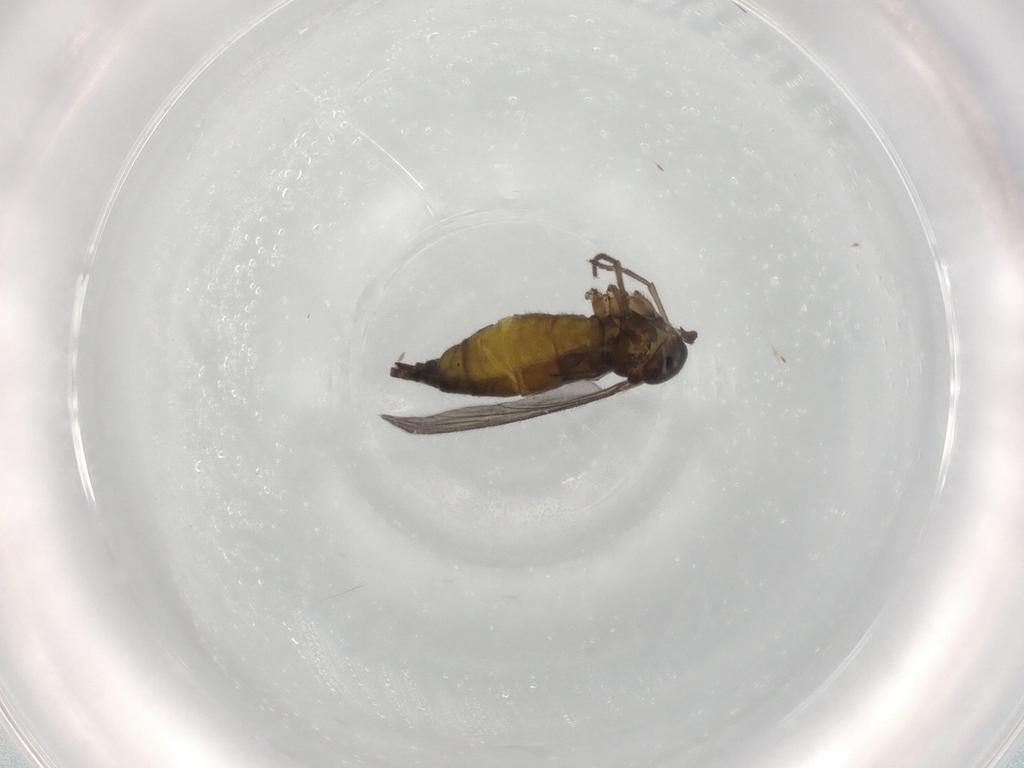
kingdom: Animalia
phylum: Arthropoda
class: Insecta
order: Diptera
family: Sciaridae
